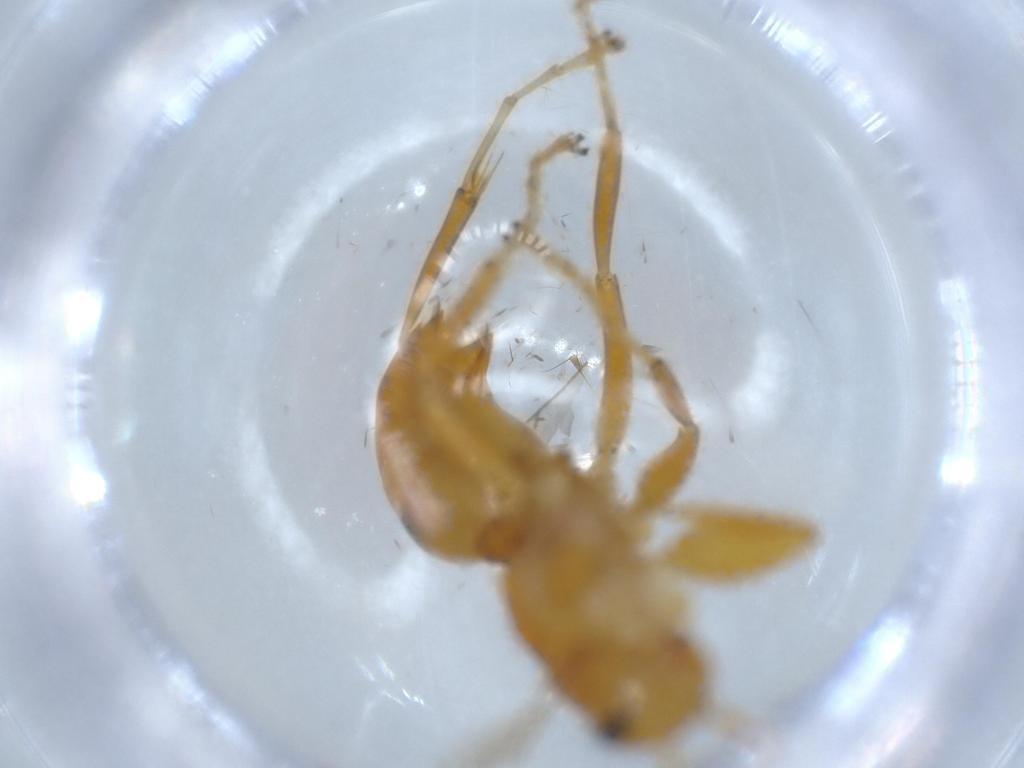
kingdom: Animalia
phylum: Arthropoda
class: Insecta
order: Hymenoptera
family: Rhopalosomatidae
